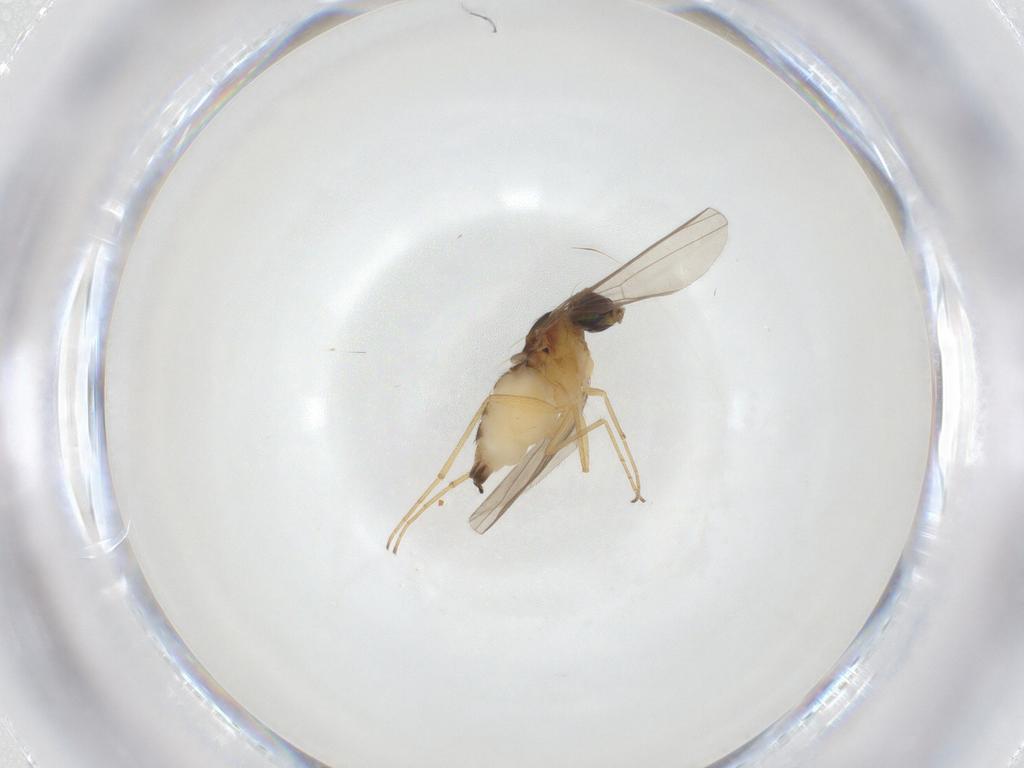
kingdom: Animalia
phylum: Arthropoda
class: Insecta
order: Diptera
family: Dolichopodidae
